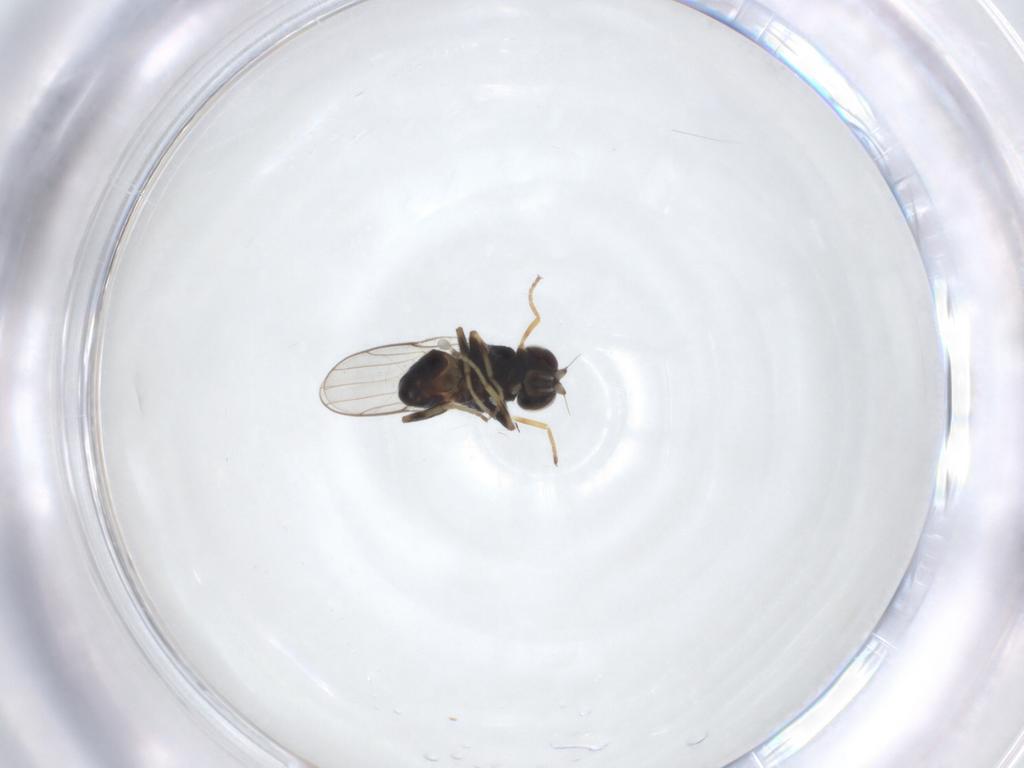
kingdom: Animalia
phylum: Arthropoda
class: Insecta
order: Diptera
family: Chloropidae
